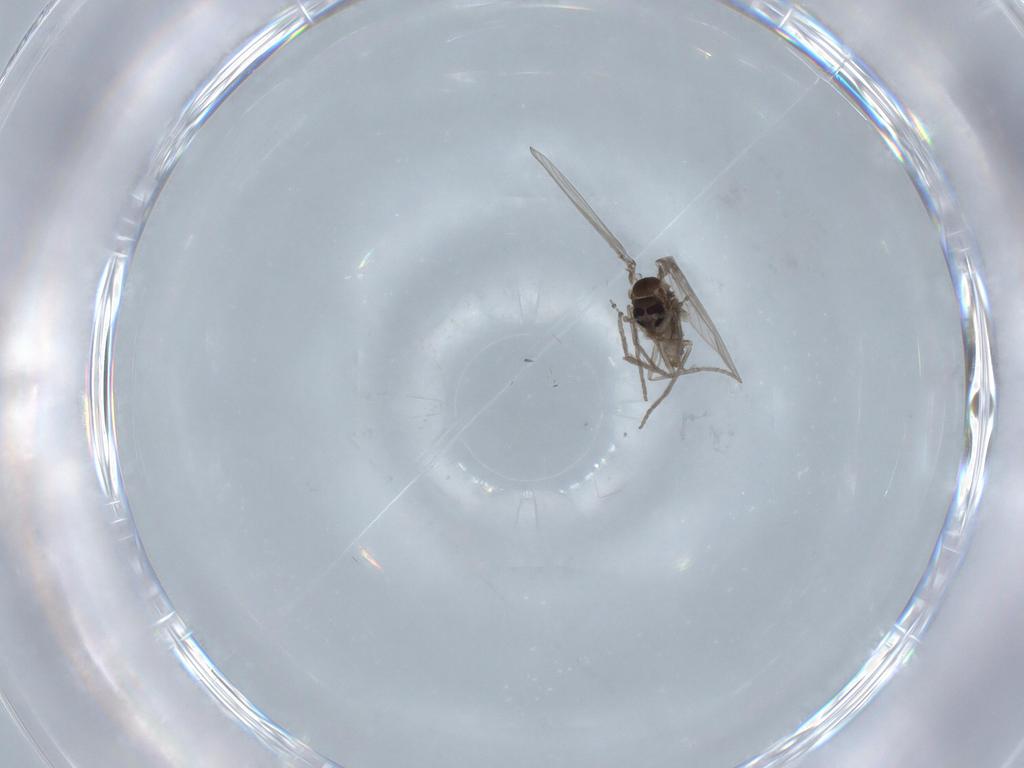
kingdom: Animalia
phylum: Arthropoda
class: Insecta
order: Diptera
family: Psychodidae
